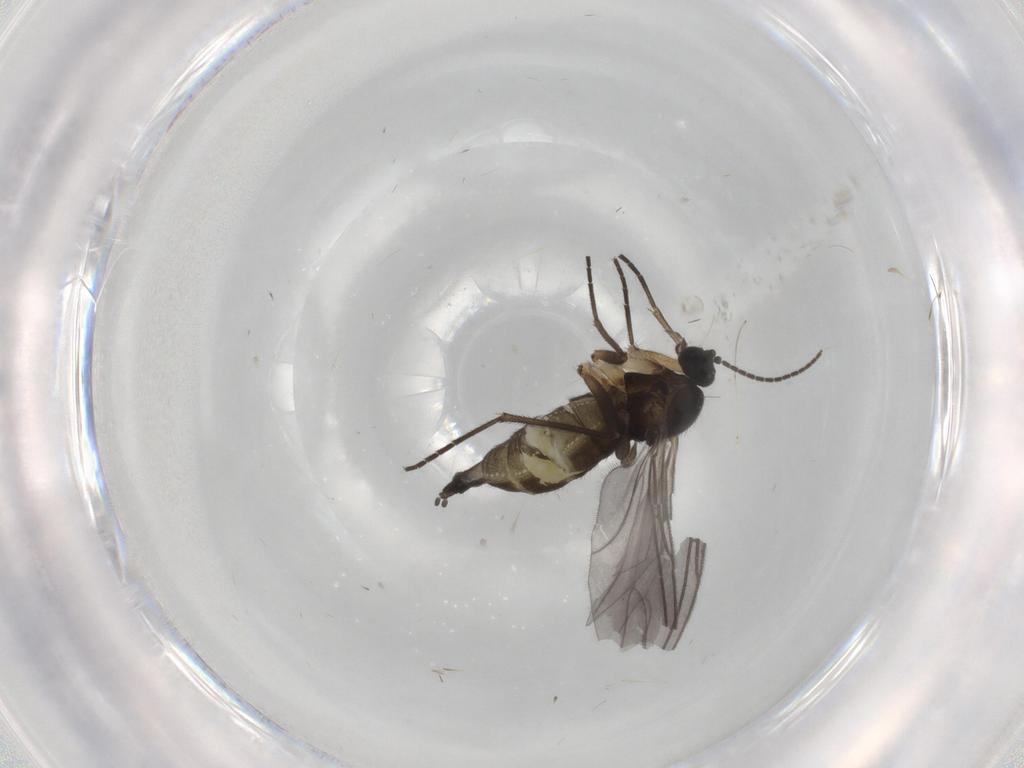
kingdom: Animalia
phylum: Arthropoda
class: Insecta
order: Diptera
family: Sciaridae
